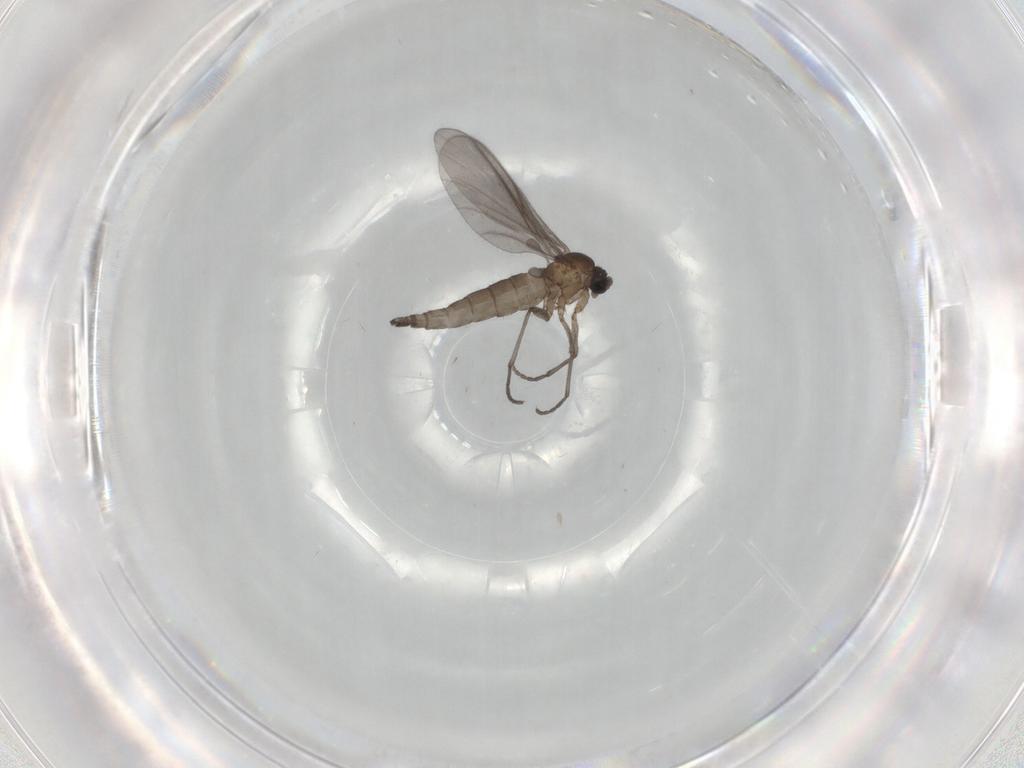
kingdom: Animalia
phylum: Arthropoda
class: Insecta
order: Diptera
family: Sciaridae
